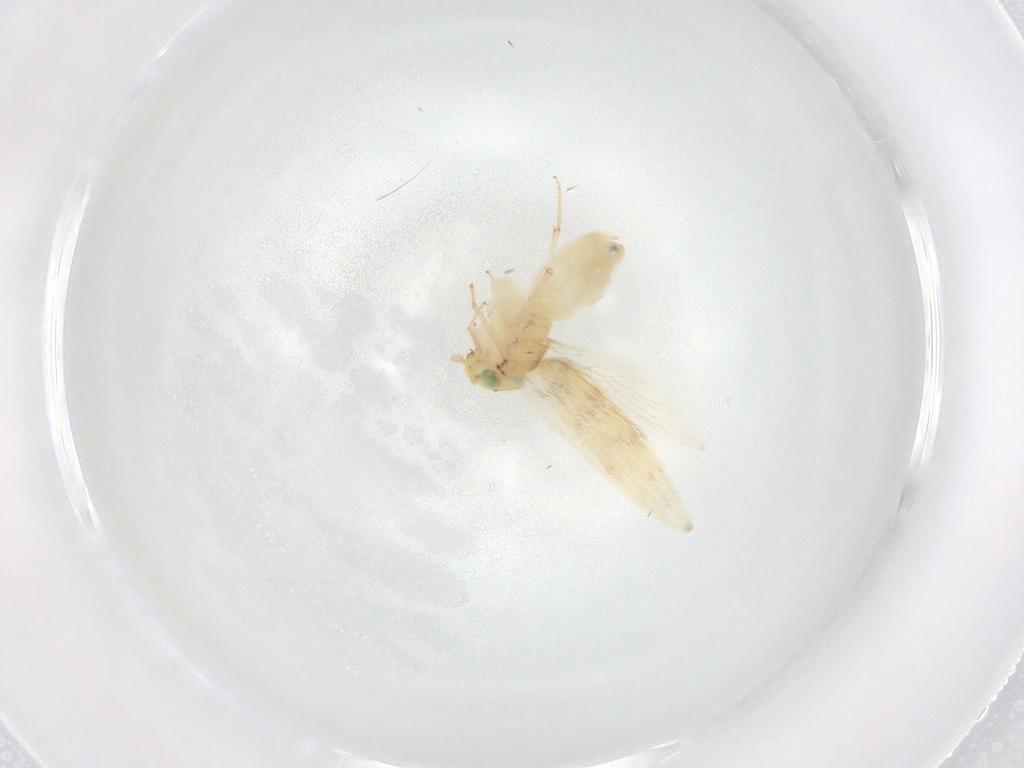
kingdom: Animalia
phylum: Arthropoda
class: Insecta
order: Psocodea
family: Lepidopsocidae
